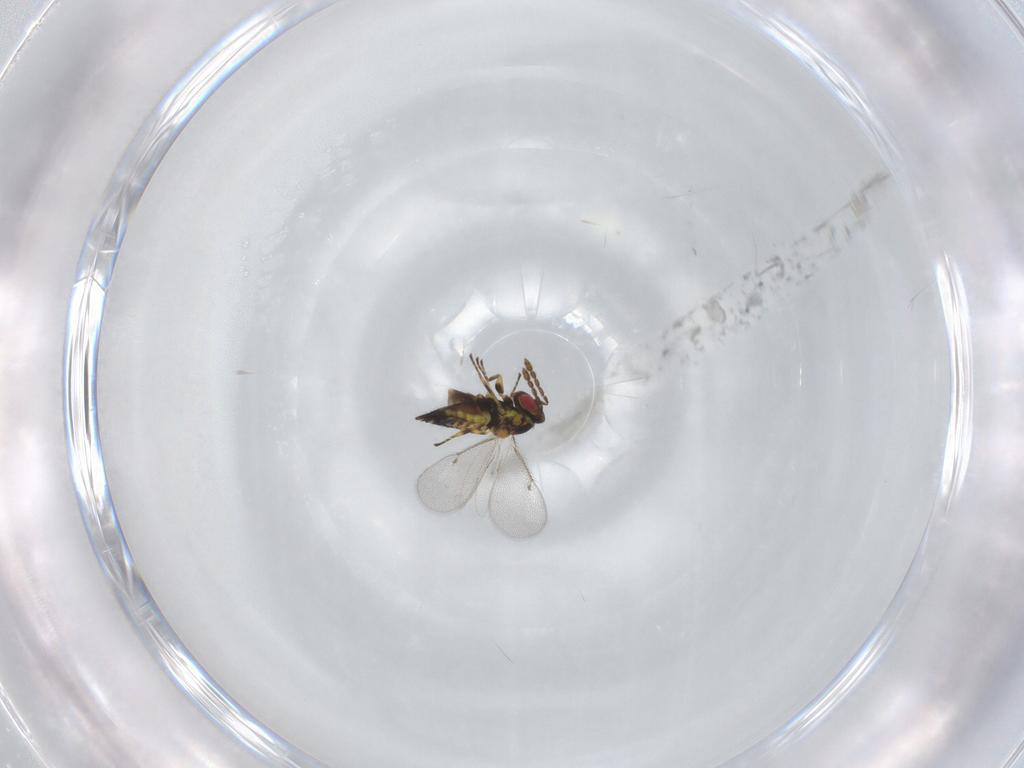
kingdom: Animalia
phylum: Arthropoda
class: Insecta
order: Hymenoptera
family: Eulophidae
